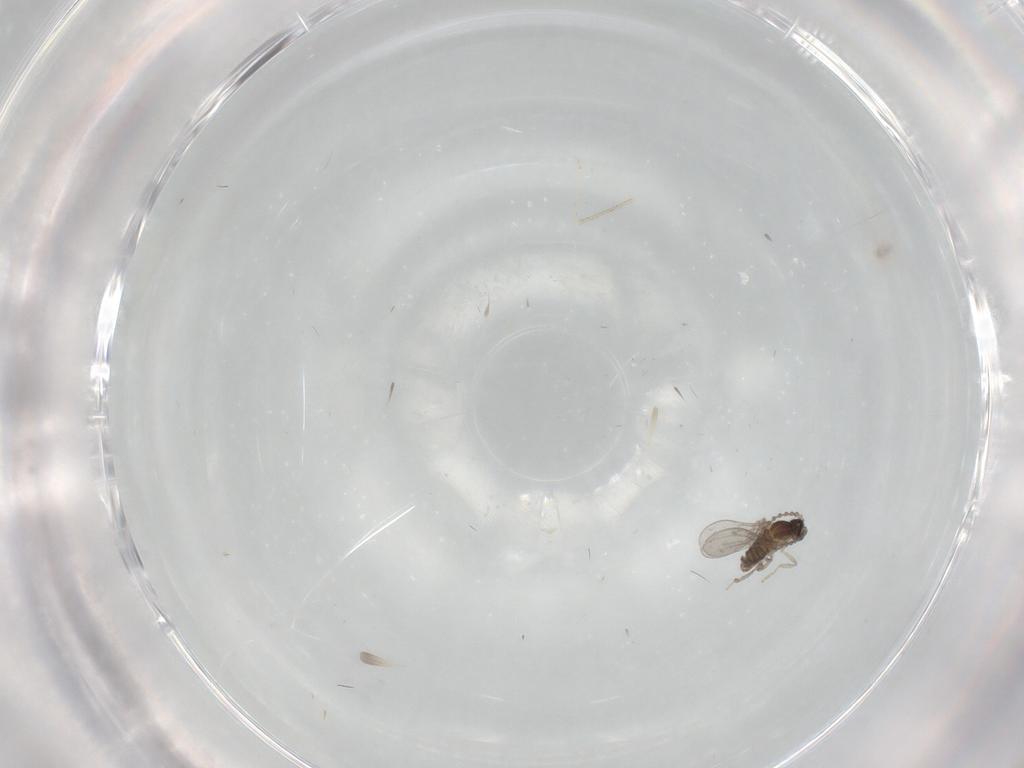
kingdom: Animalia
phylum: Arthropoda
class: Insecta
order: Diptera
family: Cecidomyiidae
